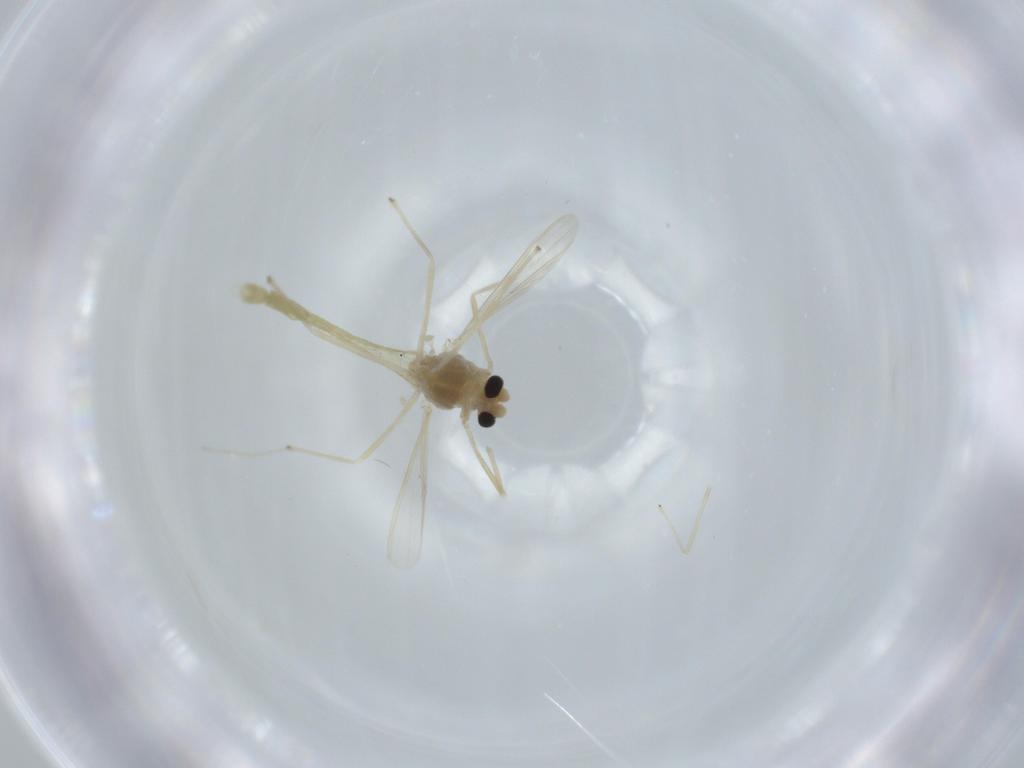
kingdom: Animalia
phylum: Arthropoda
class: Insecta
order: Diptera
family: Chironomidae
